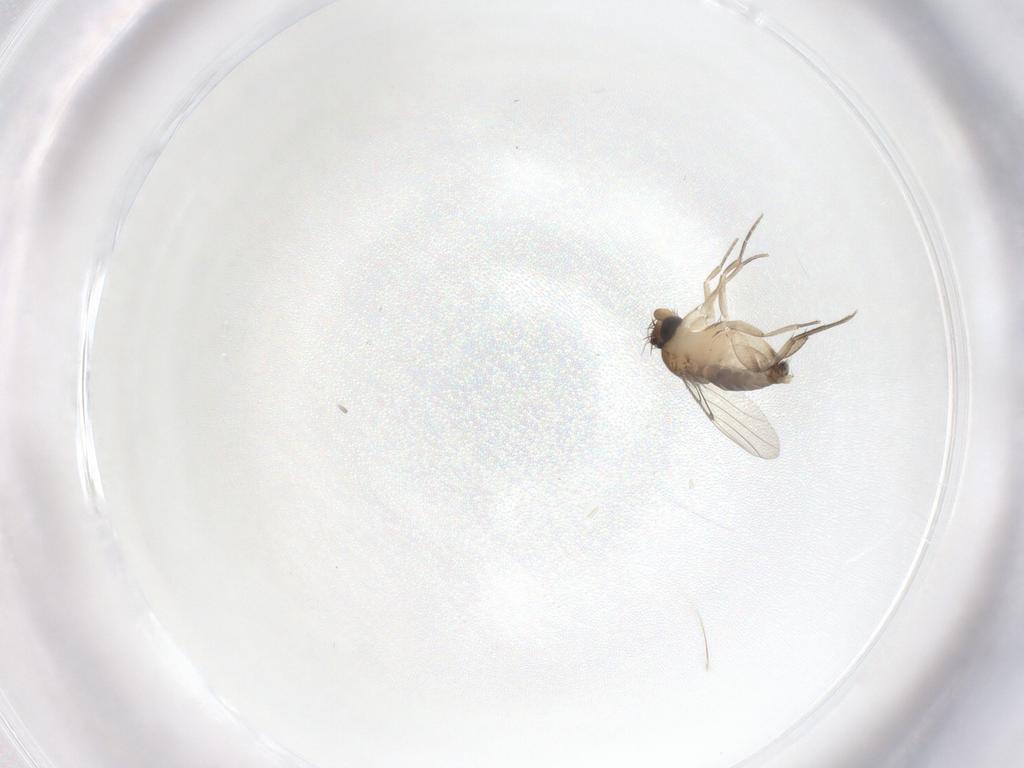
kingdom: Animalia
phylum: Arthropoda
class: Insecta
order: Diptera
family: Phoridae
